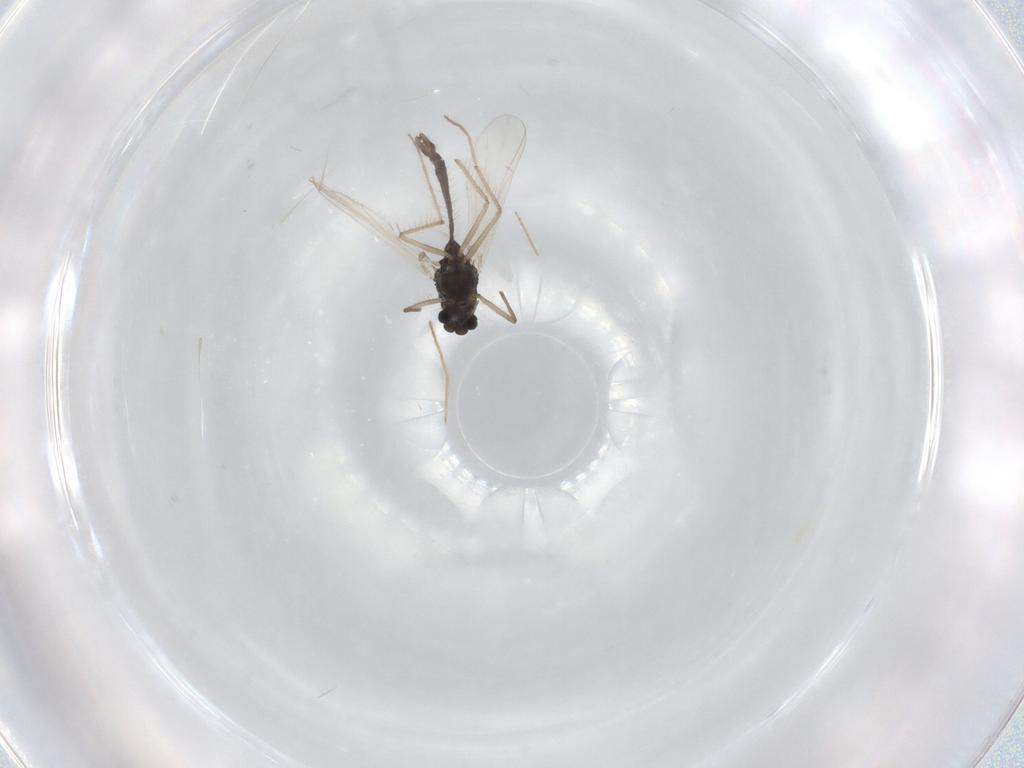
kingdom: Animalia
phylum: Arthropoda
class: Insecta
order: Diptera
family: Chironomidae
